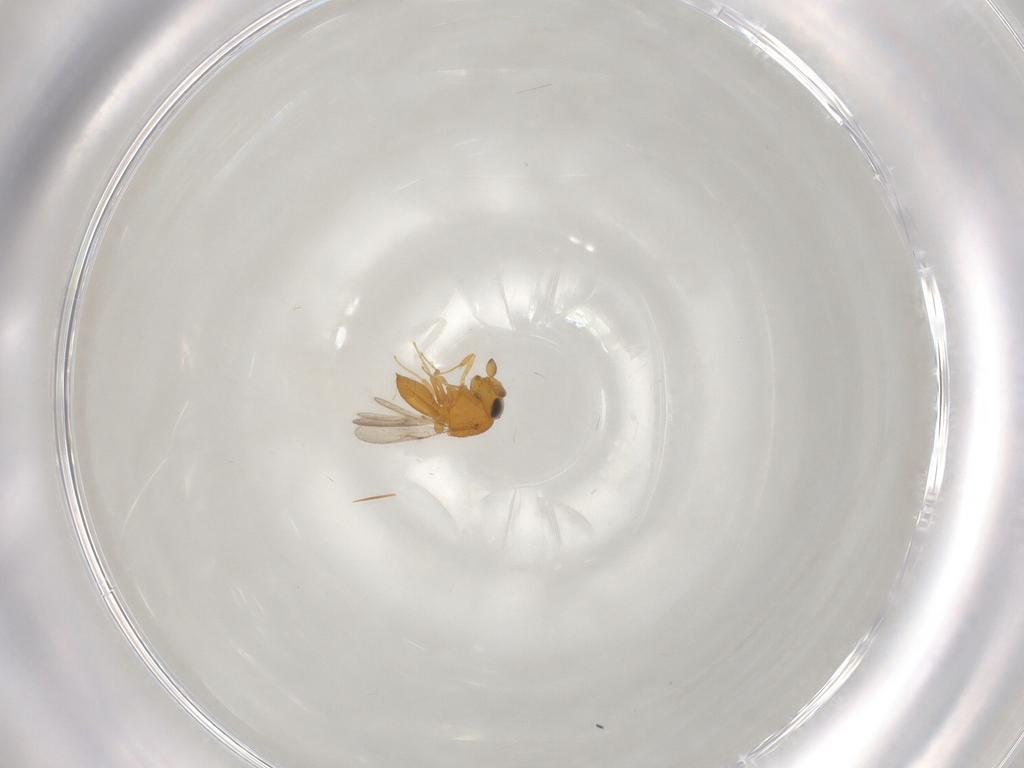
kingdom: Animalia
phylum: Arthropoda
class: Insecta
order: Hymenoptera
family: Scelionidae
